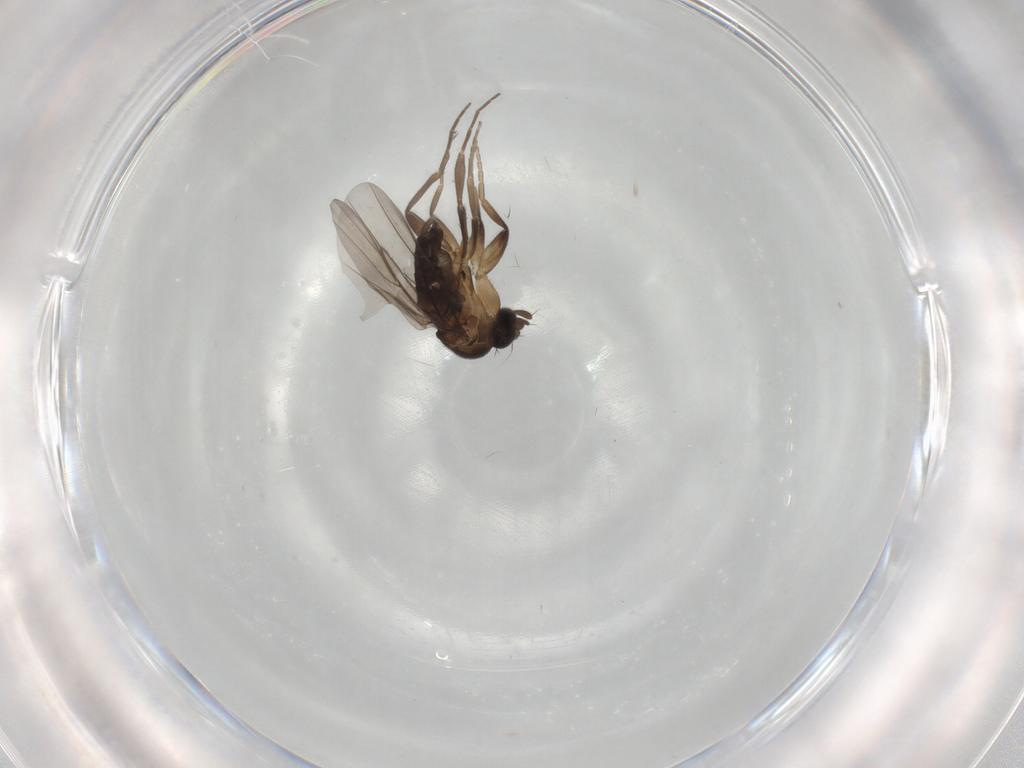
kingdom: Animalia
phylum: Arthropoda
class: Insecta
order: Diptera
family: Phoridae
